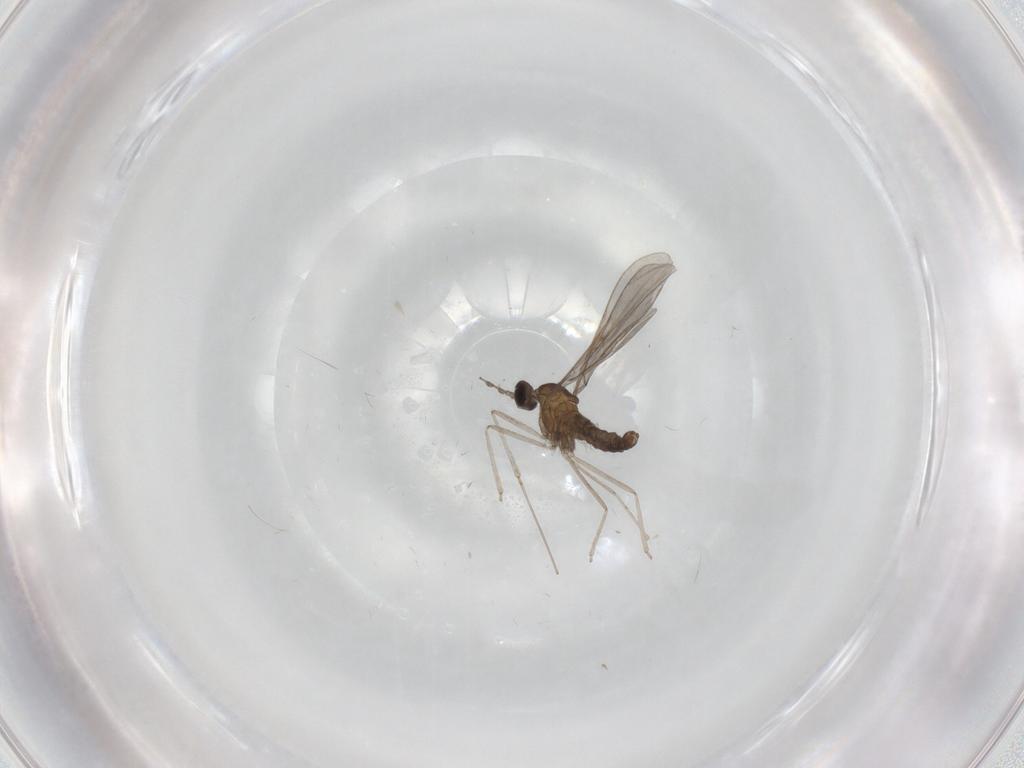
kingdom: Animalia
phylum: Arthropoda
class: Insecta
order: Diptera
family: Cecidomyiidae
